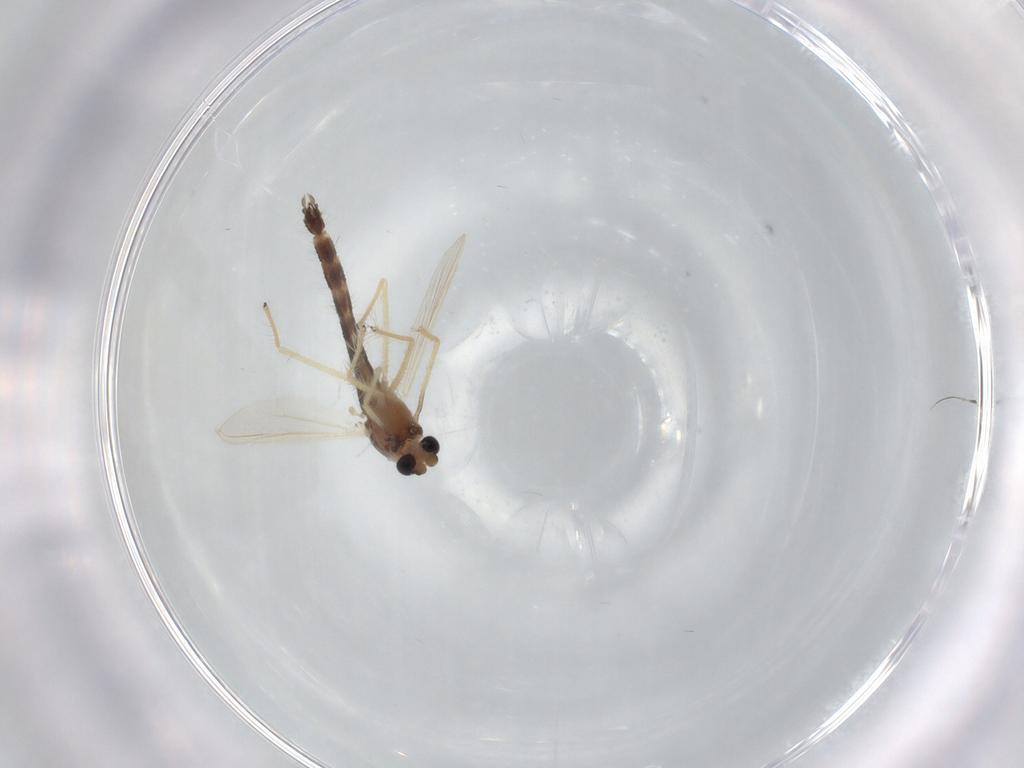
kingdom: Animalia
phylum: Arthropoda
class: Insecta
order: Diptera
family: Chironomidae
